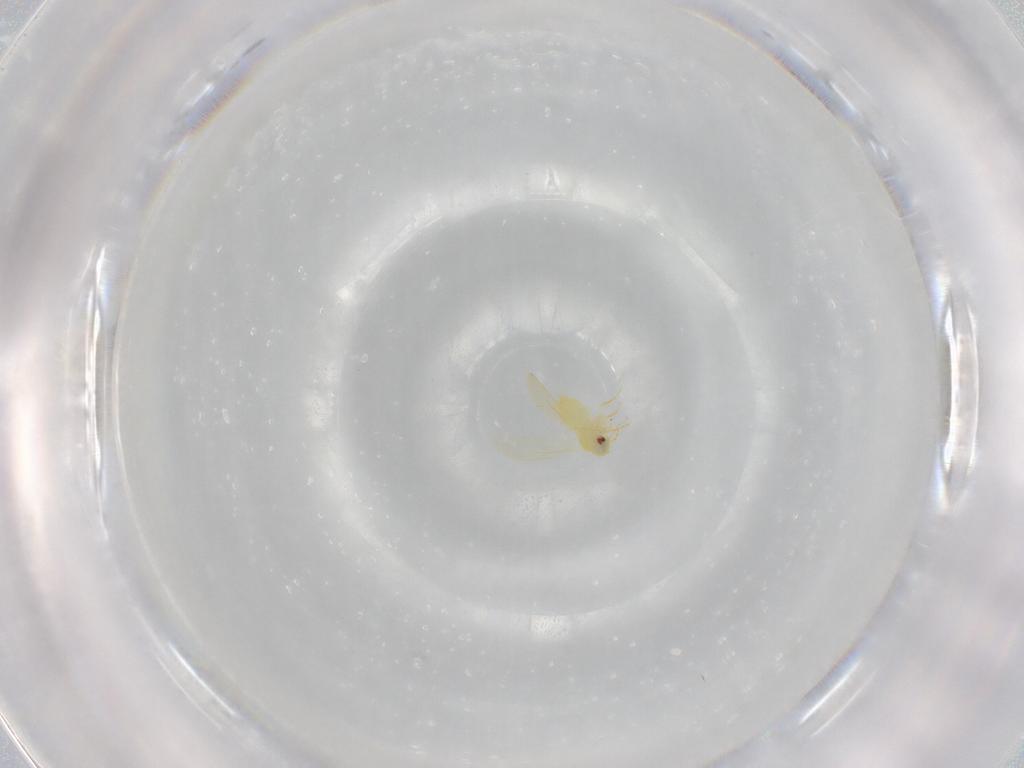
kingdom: Animalia
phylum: Arthropoda
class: Insecta
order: Hemiptera
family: Aleyrodidae
